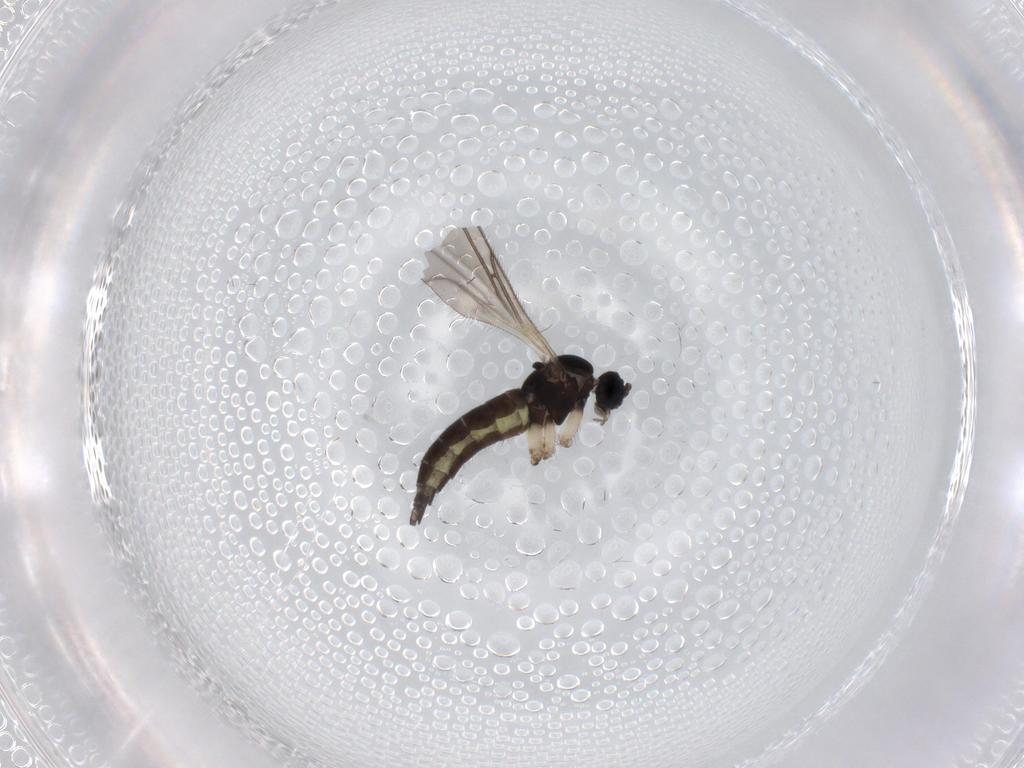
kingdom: Animalia
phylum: Arthropoda
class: Insecta
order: Diptera
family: Sciaridae
